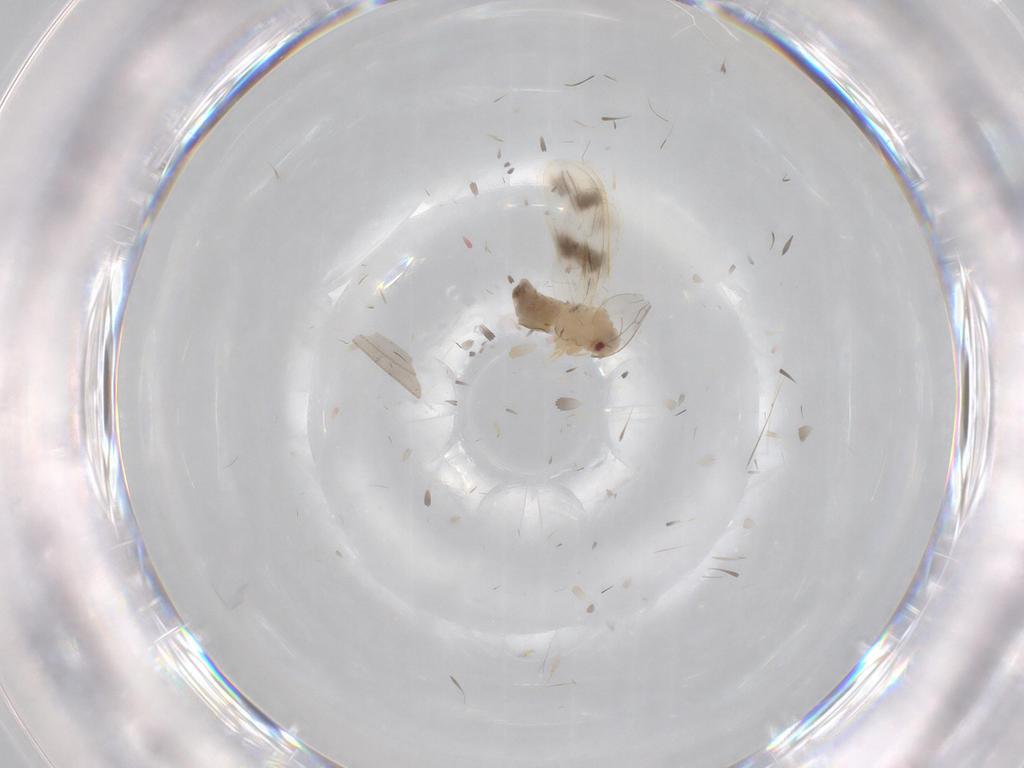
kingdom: Animalia
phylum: Arthropoda
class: Insecta
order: Hemiptera
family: Aleyrodidae
